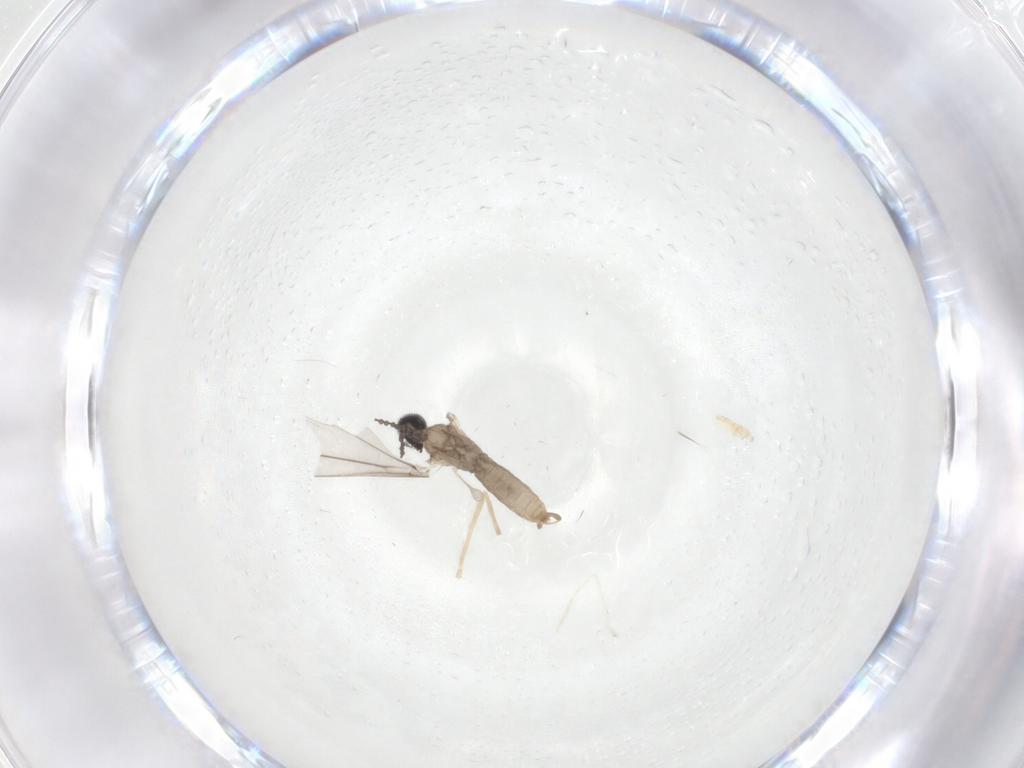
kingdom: Animalia
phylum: Arthropoda
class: Insecta
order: Diptera
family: Cecidomyiidae
